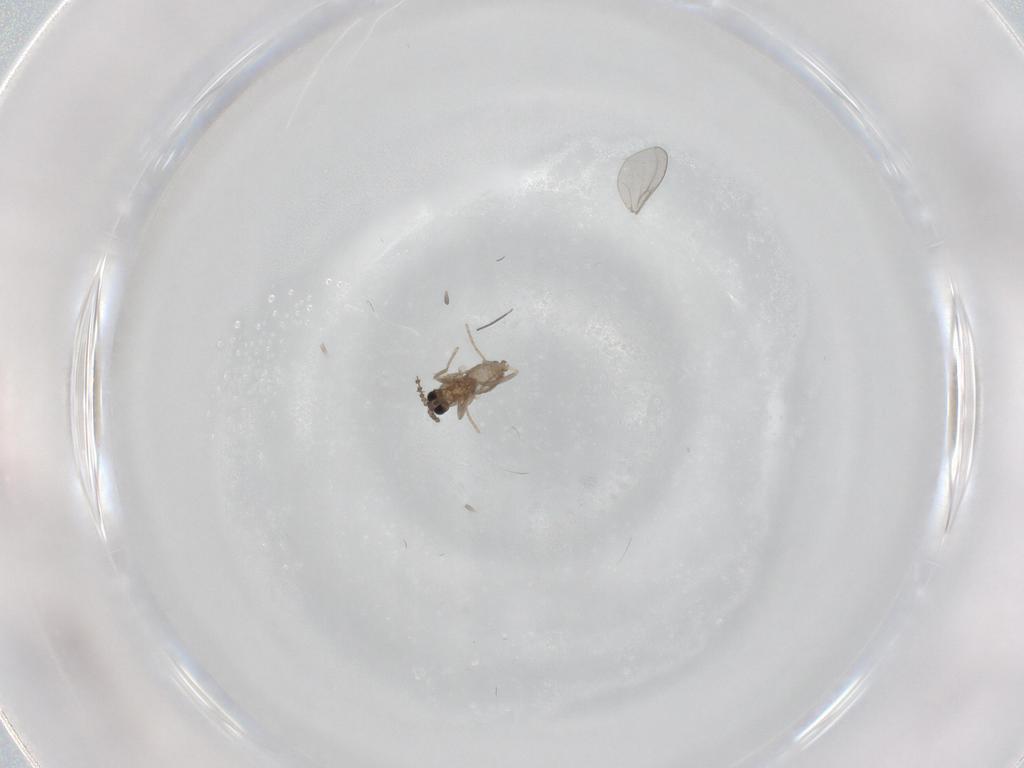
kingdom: Animalia
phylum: Arthropoda
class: Insecta
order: Diptera
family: Cecidomyiidae
